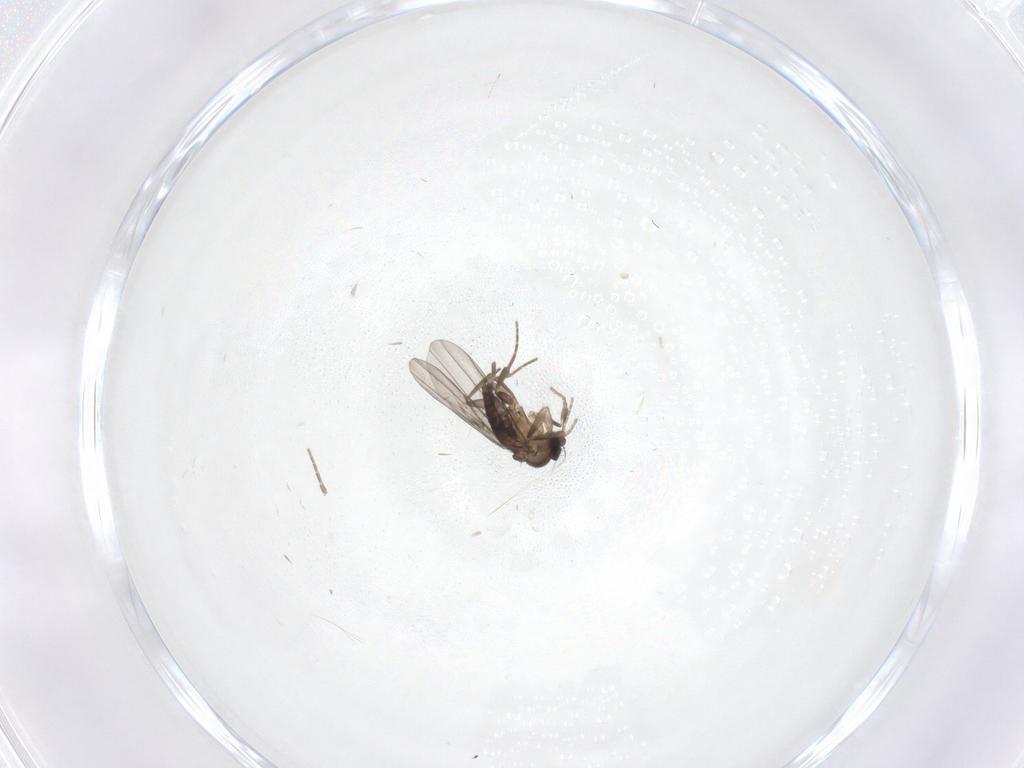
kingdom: Animalia
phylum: Arthropoda
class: Insecta
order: Diptera
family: Phoridae
